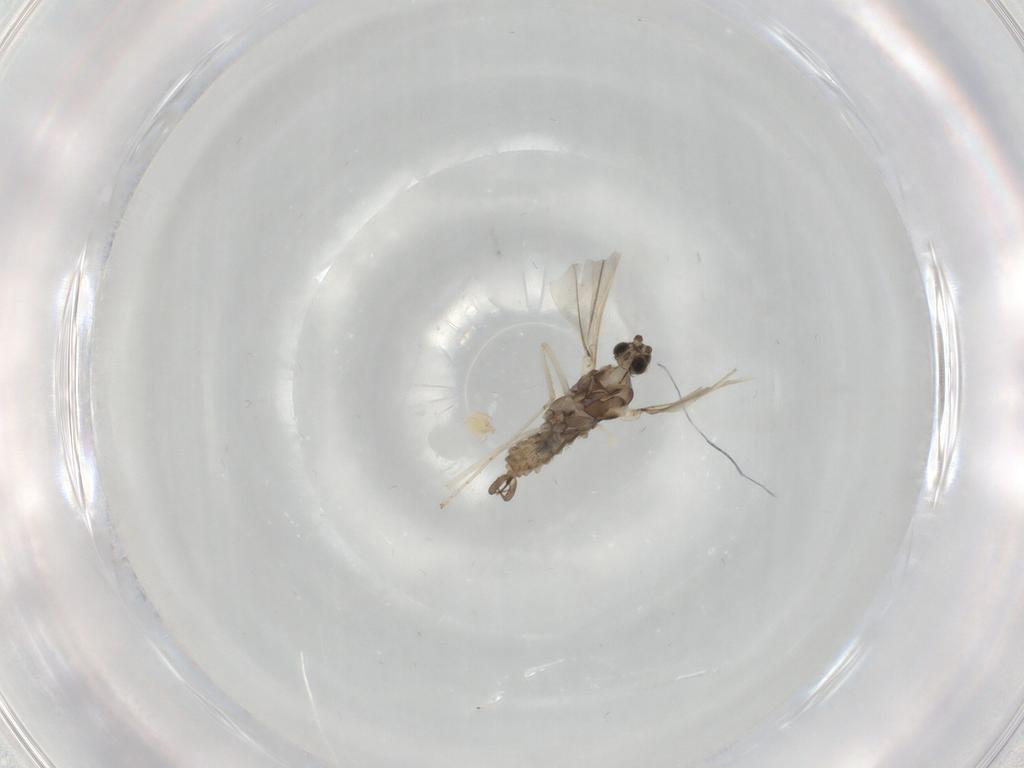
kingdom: Animalia
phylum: Arthropoda
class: Insecta
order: Diptera
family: Cecidomyiidae
